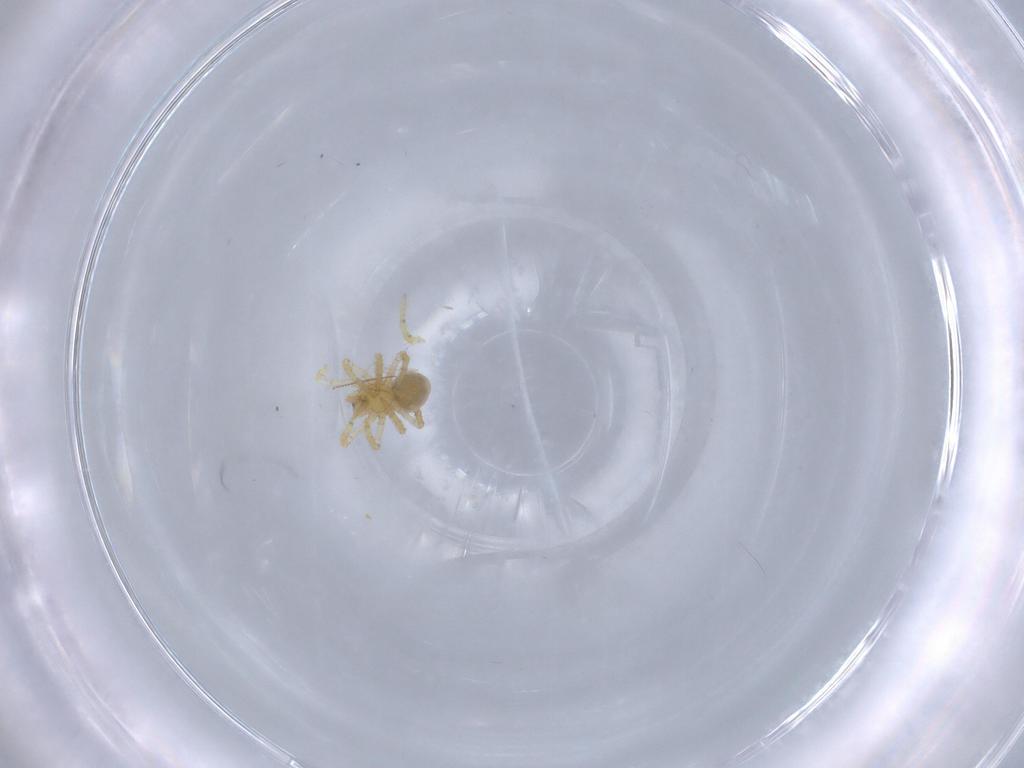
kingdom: Animalia
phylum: Arthropoda
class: Arachnida
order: Araneae
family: Theridiidae
